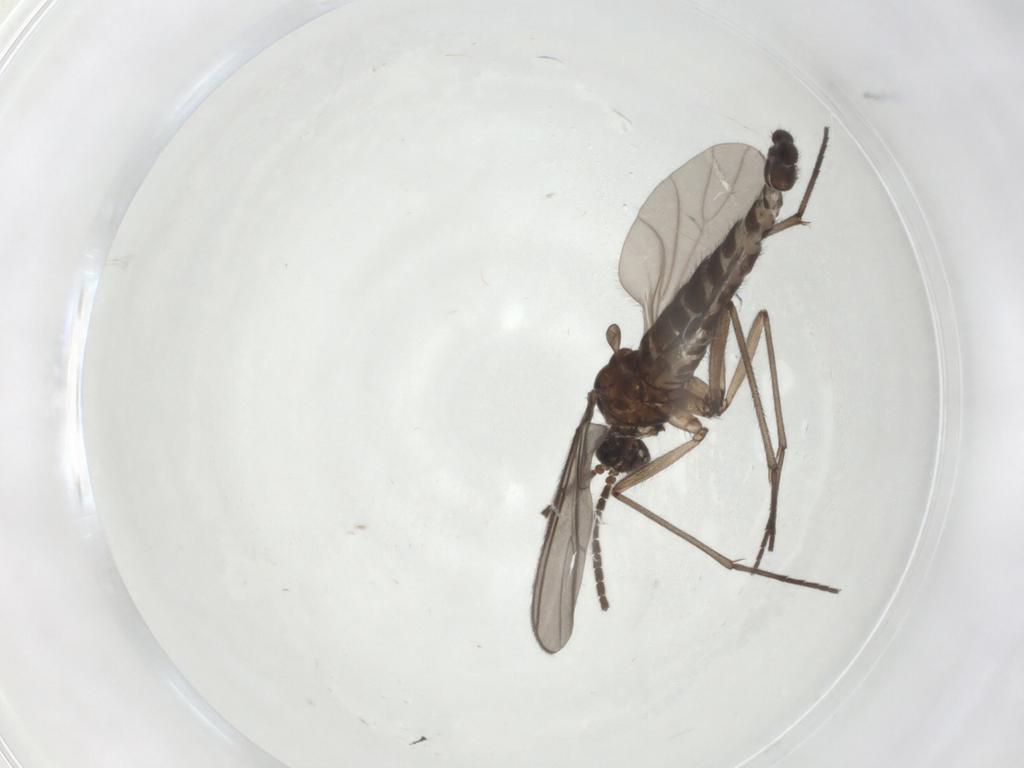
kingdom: Animalia
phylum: Arthropoda
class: Insecta
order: Diptera
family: Sciaridae
